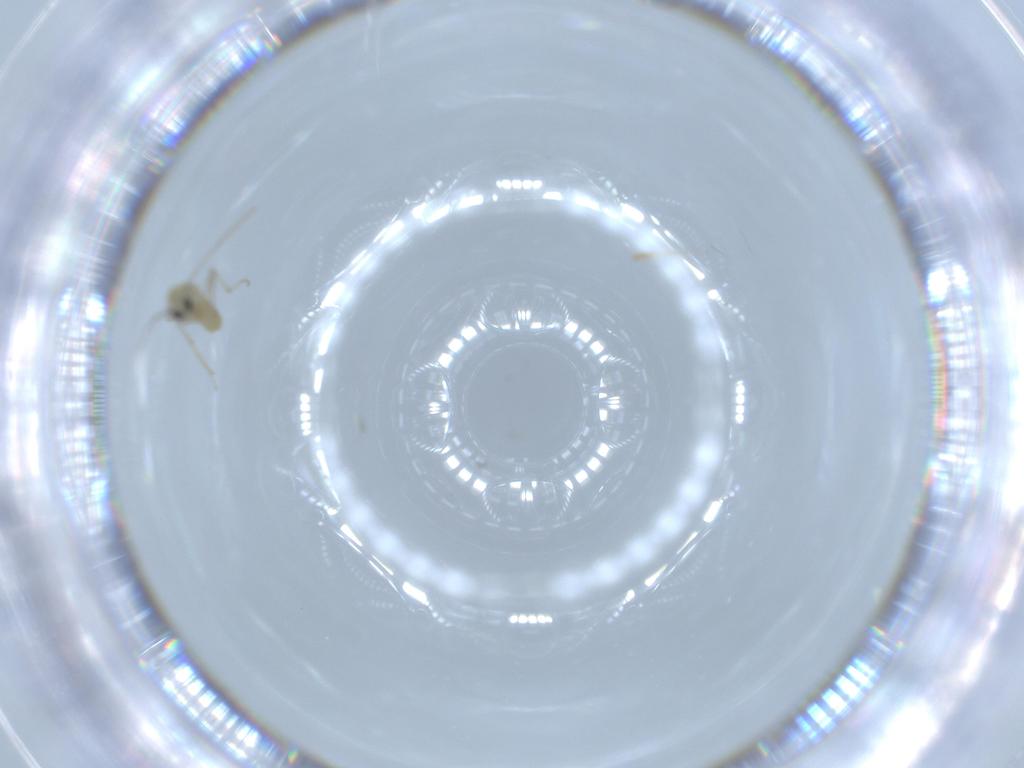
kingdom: Animalia
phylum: Arthropoda
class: Insecta
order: Diptera
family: Chironomidae
